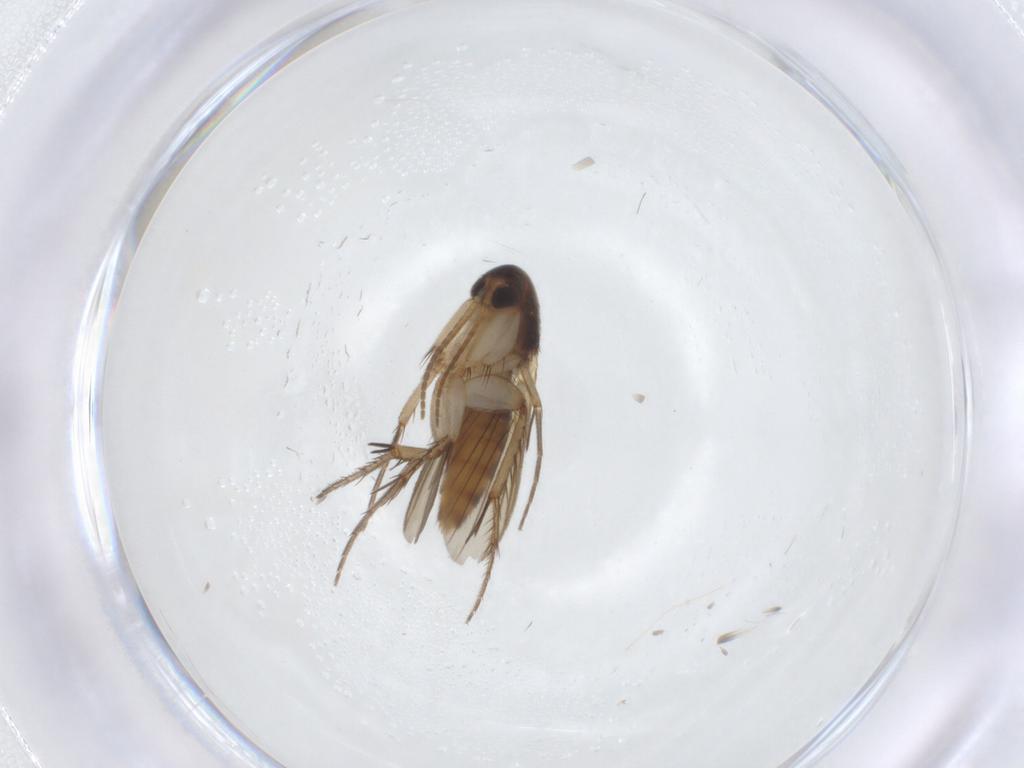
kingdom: Animalia
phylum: Arthropoda
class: Insecta
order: Diptera
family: Mycetophilidae
